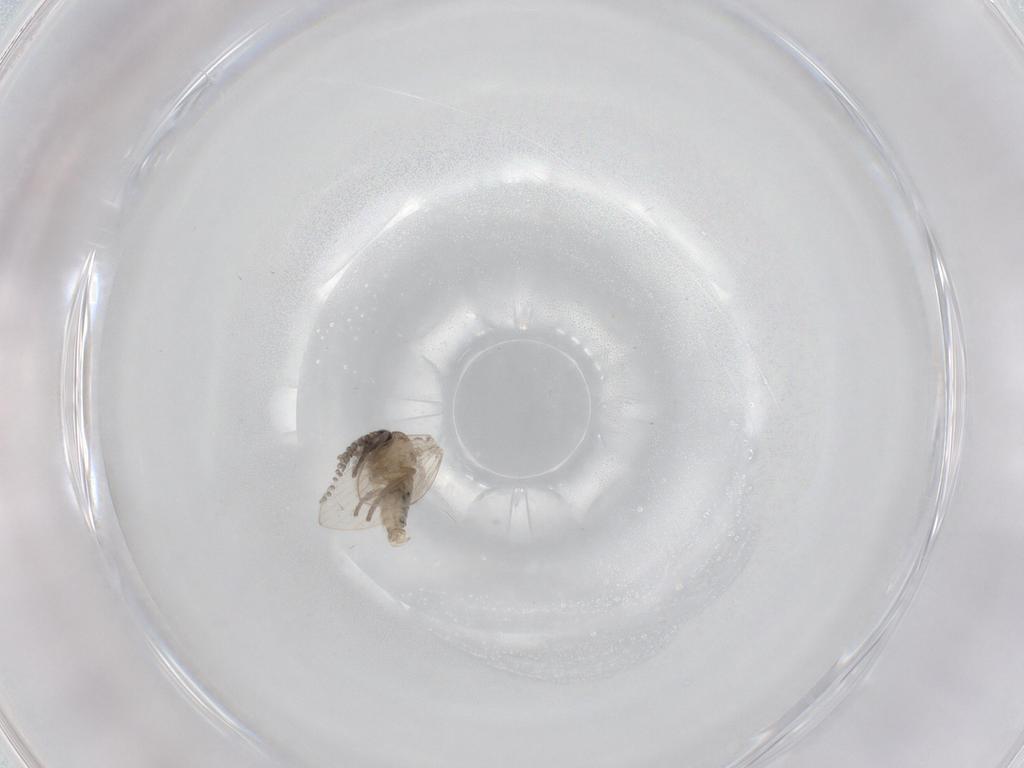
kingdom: Animalia
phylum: Arthropoda
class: Insecta
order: Diptera
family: Psychodidae
